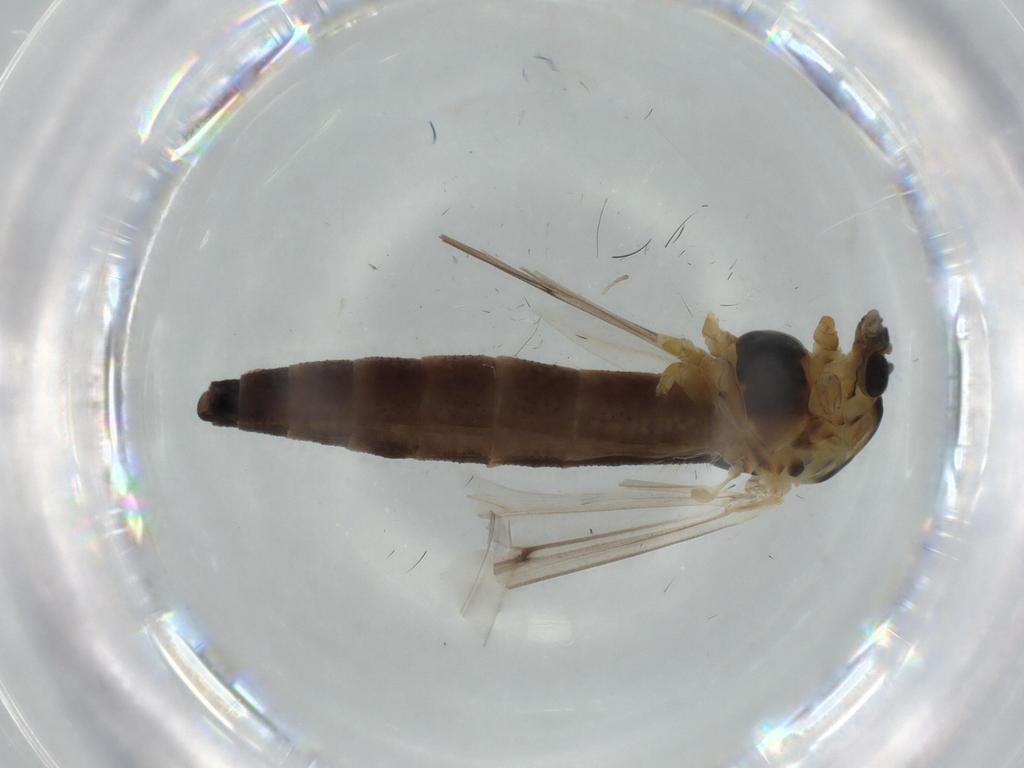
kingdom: Animalia
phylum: Arthropoda
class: Insecta
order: Diptera
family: Chironomidae
